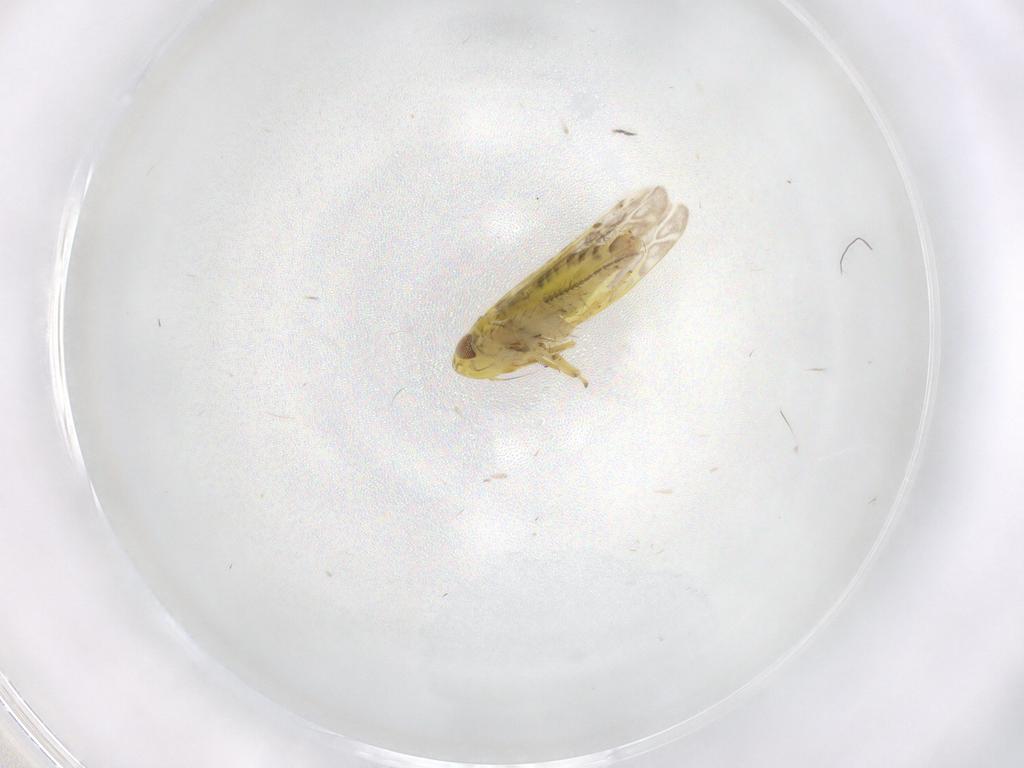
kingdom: Animalia
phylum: Arthropoda
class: Insecta
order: Hemiptera
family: Cicadellidae
